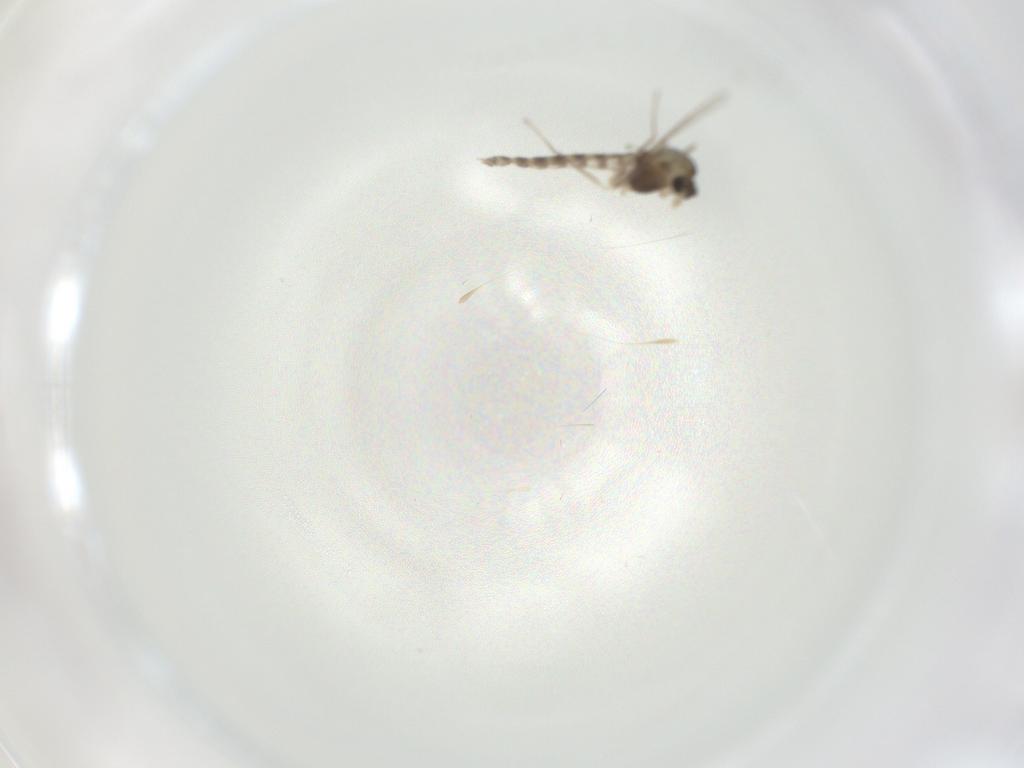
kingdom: Animalia
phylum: Arthropoda
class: Insecta
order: Diptera
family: Chironomidae
